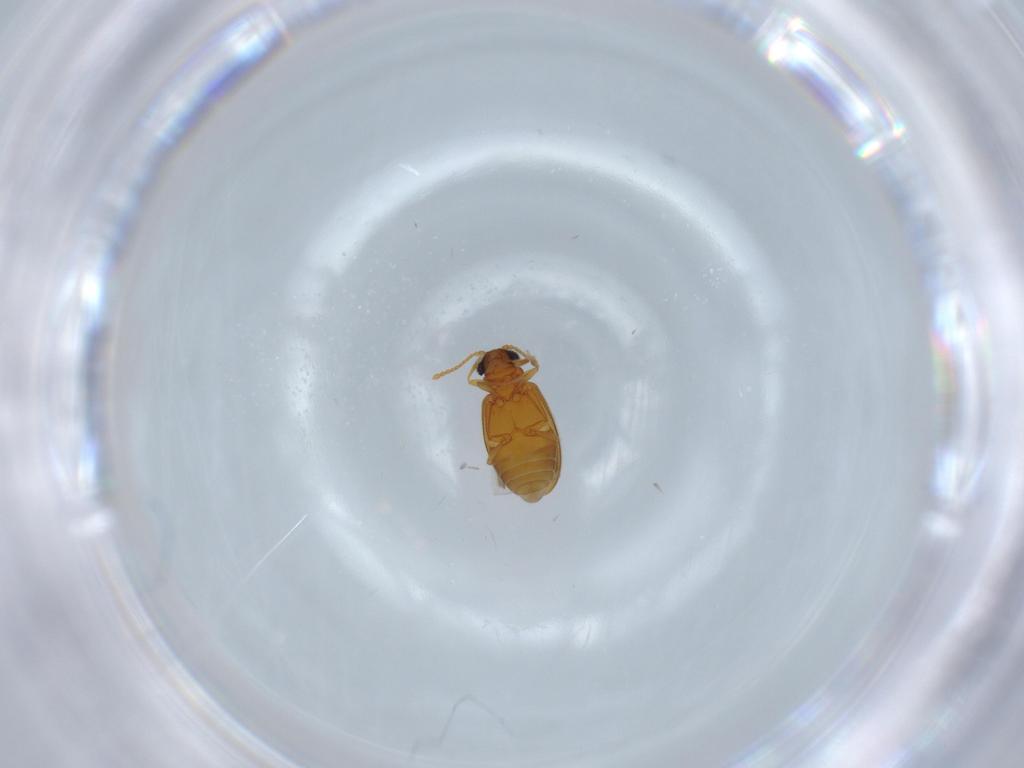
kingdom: Animalia
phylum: Arthropoda
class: Insecta
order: Coleoptera
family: Aderidae
